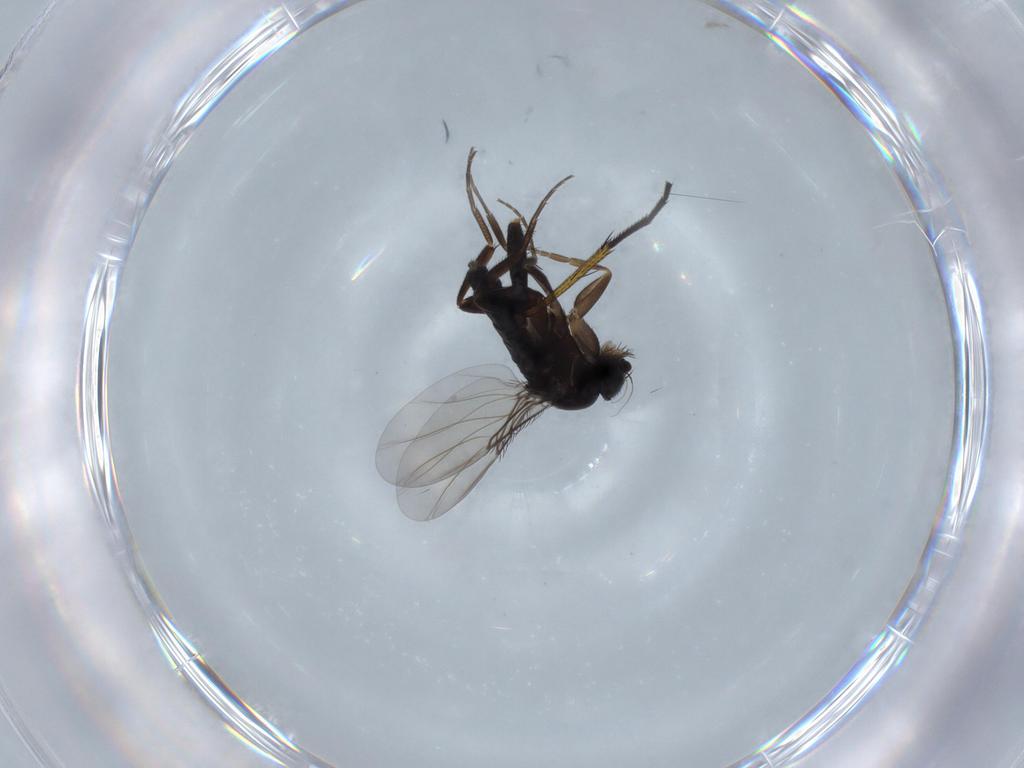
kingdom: Animalia
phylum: Arthropoda
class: Insecta
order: Diptera
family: Phoridae
